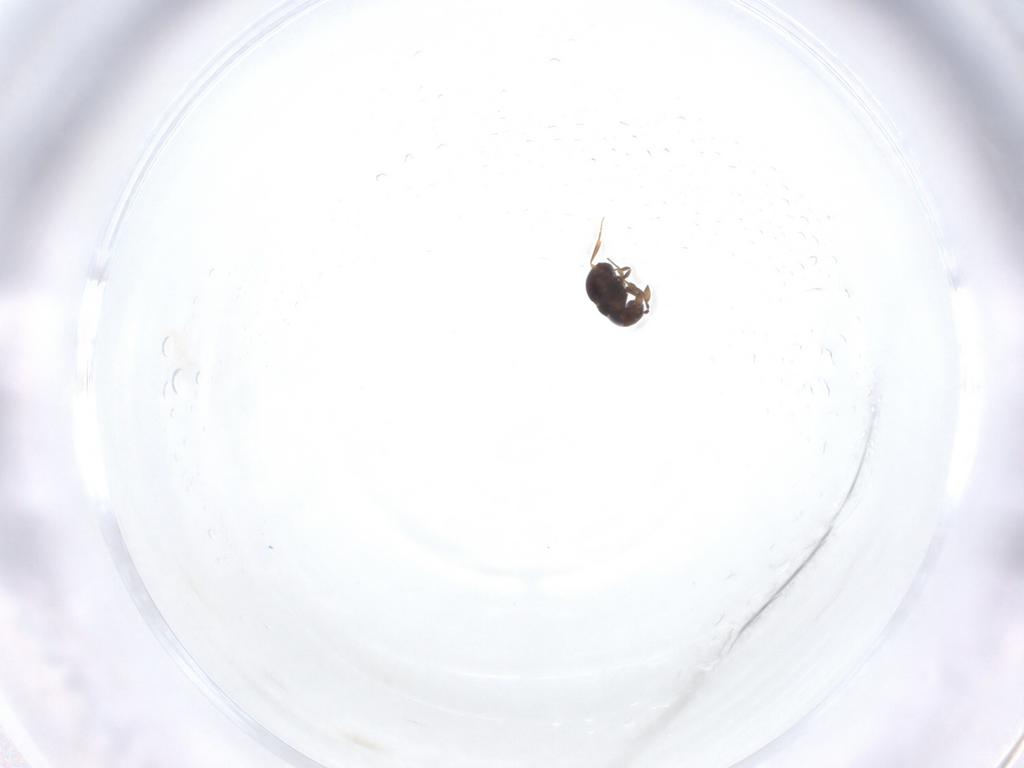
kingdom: Animalia
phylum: Arthropoda
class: Insecta
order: Hymenoptera
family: Scelionidae
